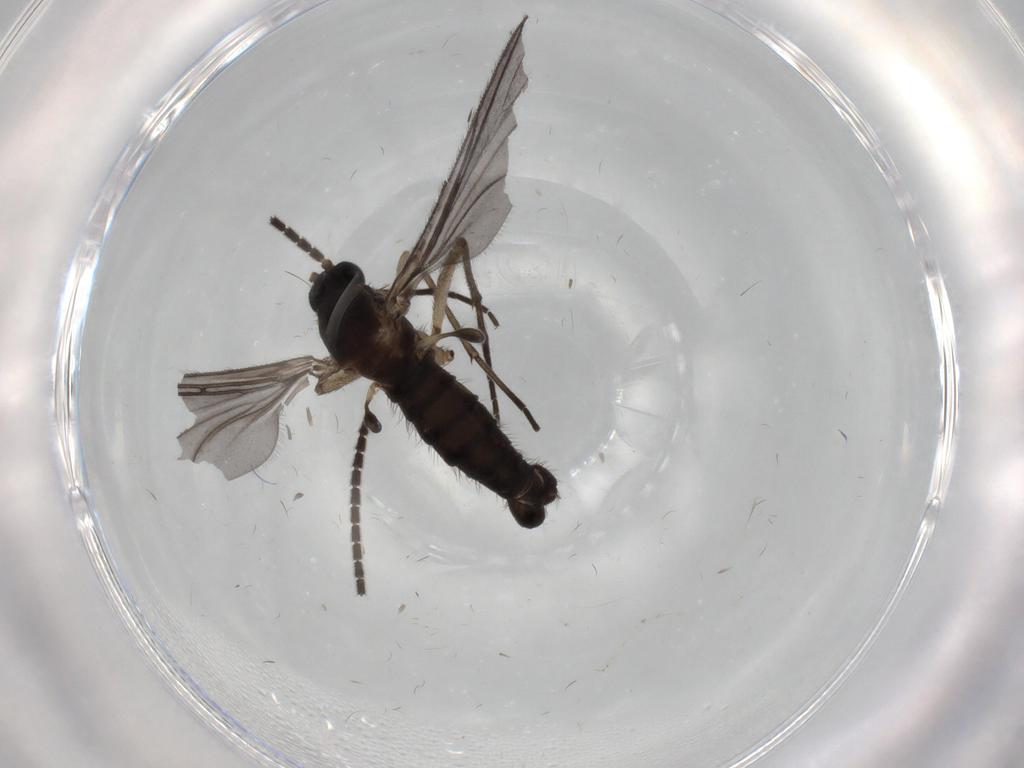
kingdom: Animalia
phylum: Arthropoda
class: Insecta
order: Diptera
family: Sciaridae
